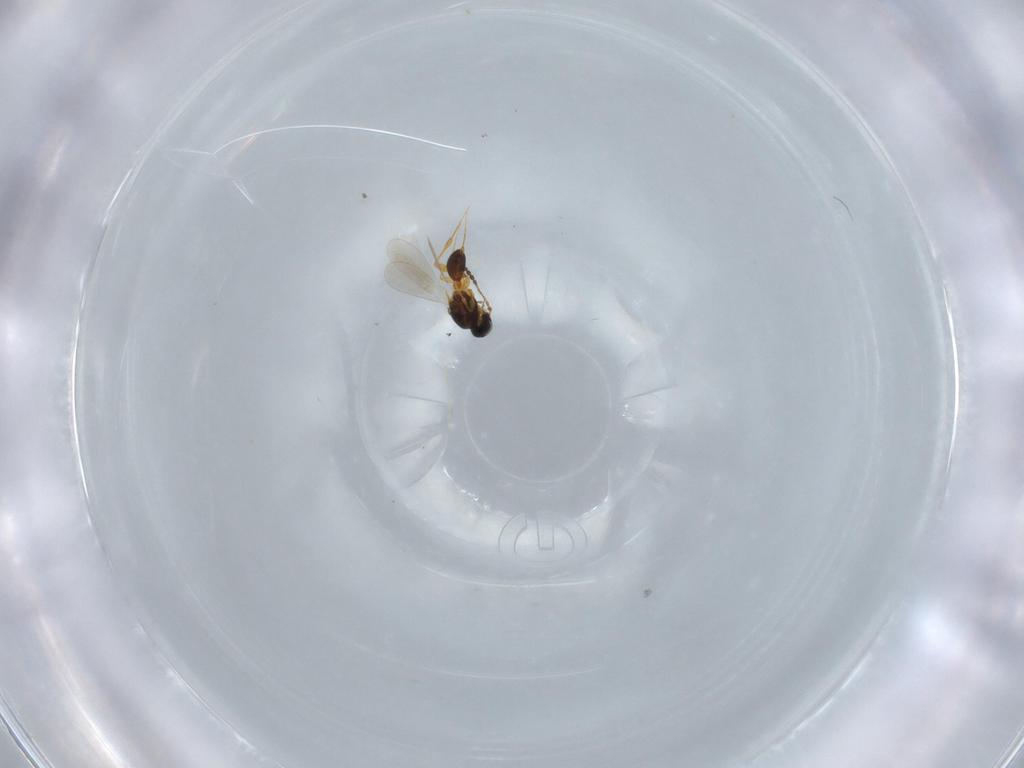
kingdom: Animalia
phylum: Arthropoda
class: Insecta
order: Hymenoptera
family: Platygastridae
